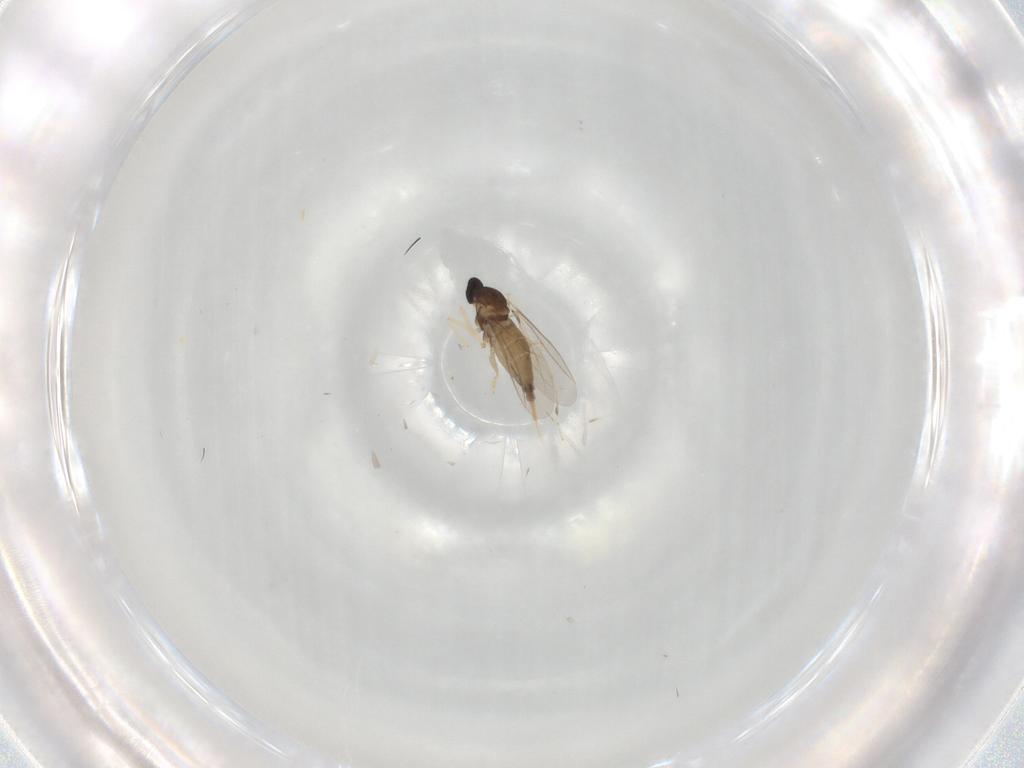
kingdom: Animalia
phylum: Arthropoda
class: Insecta
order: Diptera
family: Cecidomyiidae
